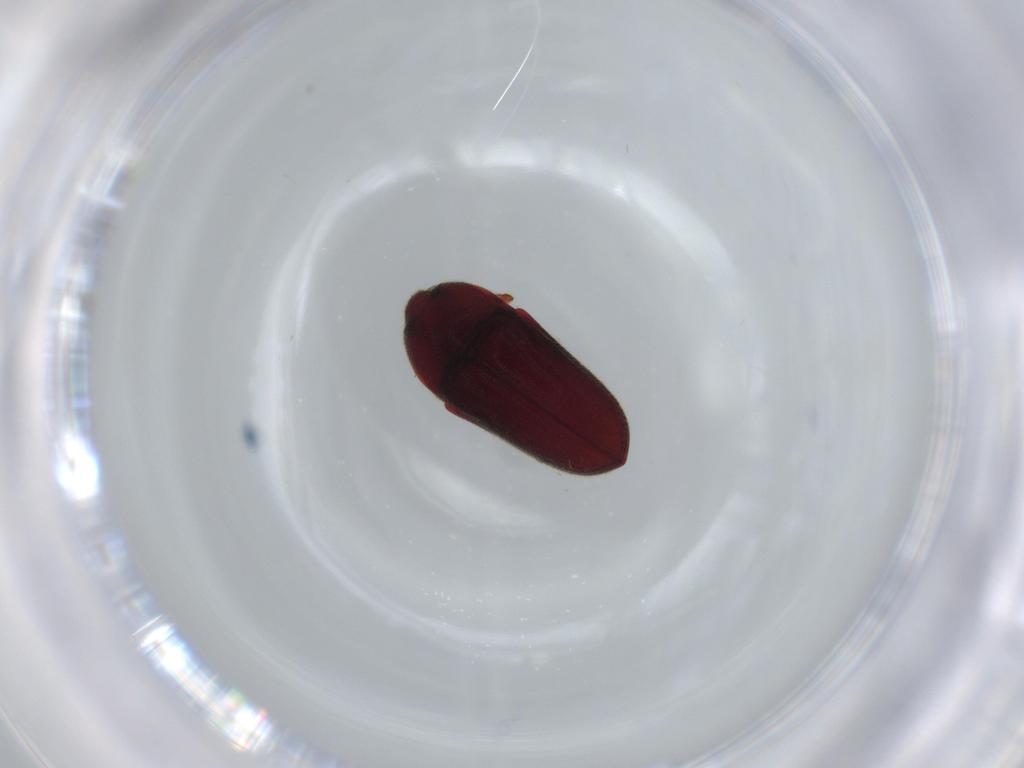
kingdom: Animalia
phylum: Arthropoda
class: Insecta
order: Coleoptera
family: Throscidae
